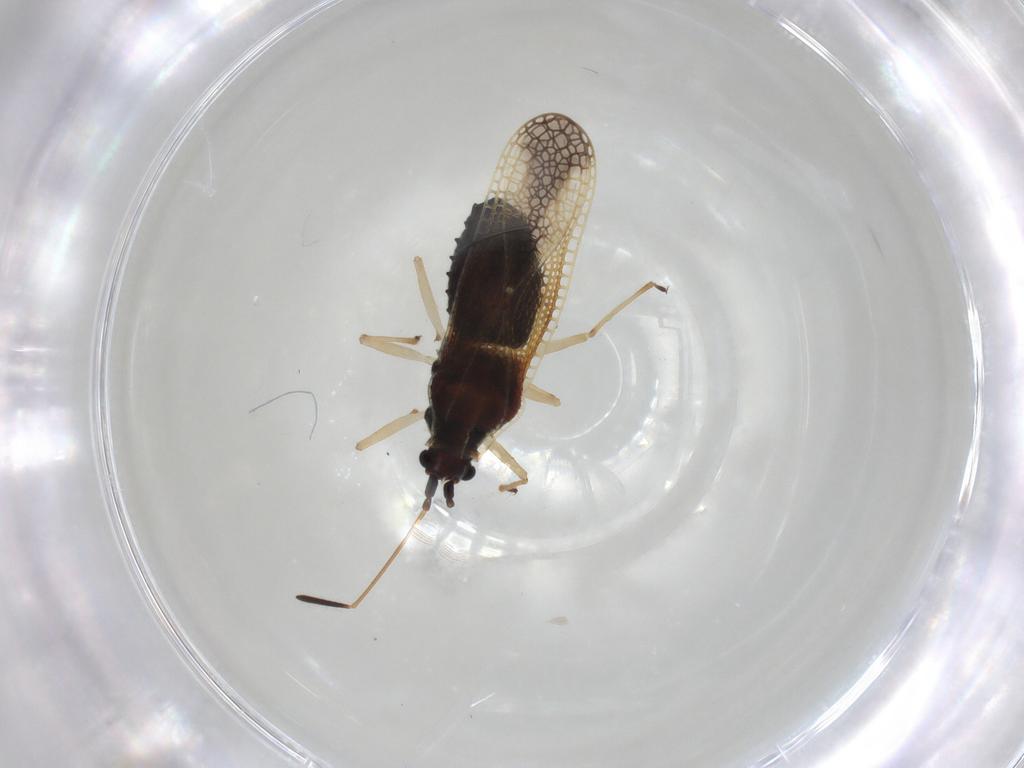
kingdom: Animalia
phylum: Arthropoda
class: Insecta
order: Hemiptera
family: Tingidae
